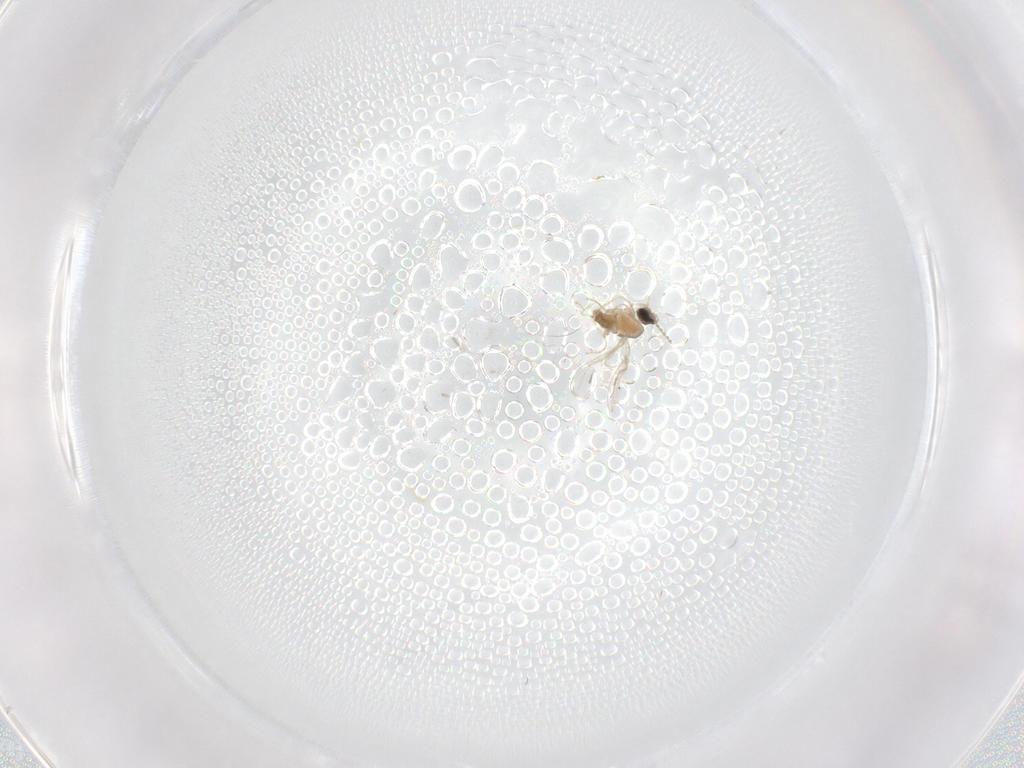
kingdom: Animalia
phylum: Arthropoda
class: Insecta
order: Diptera
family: Cecidomyiidae
